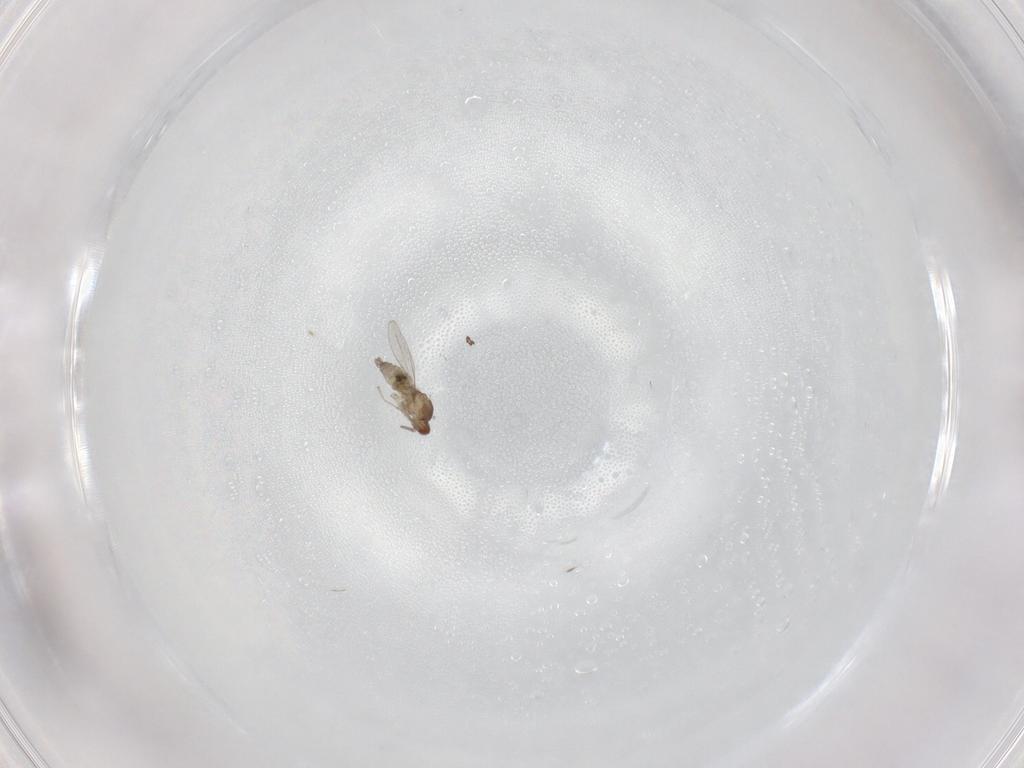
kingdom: Animalia
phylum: Arthropoda
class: Insecta
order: Diptera
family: Cecidomyiidae
